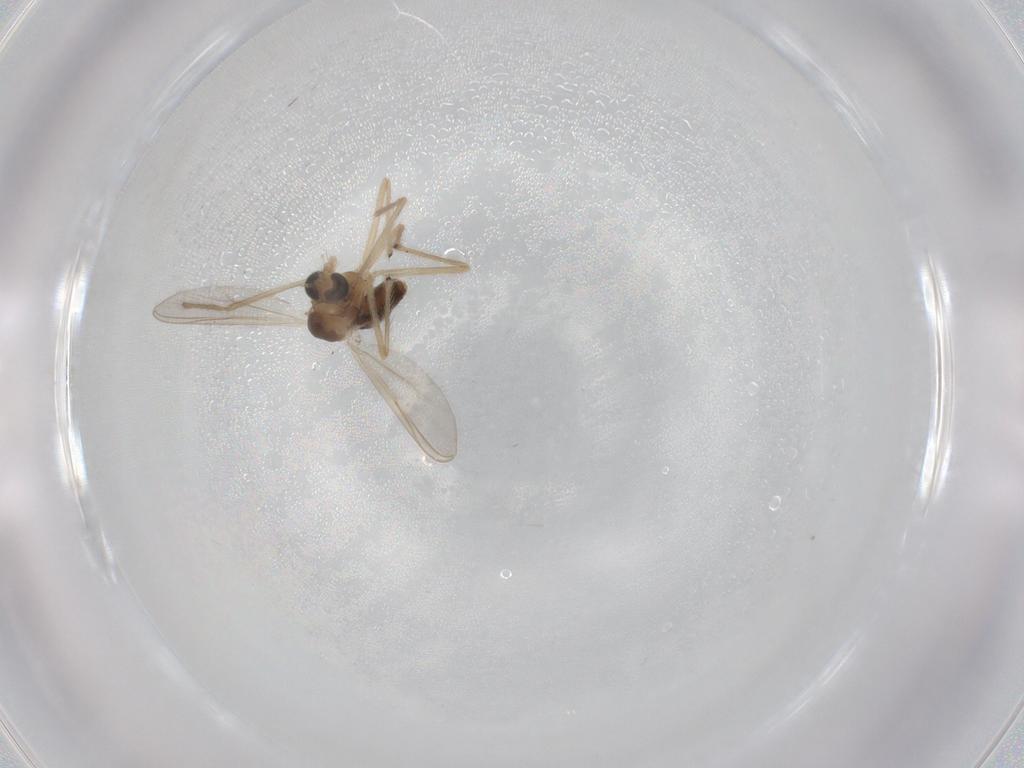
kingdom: Animalia
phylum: Arthropoda
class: Insecta
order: Diptera
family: Chironomidae
